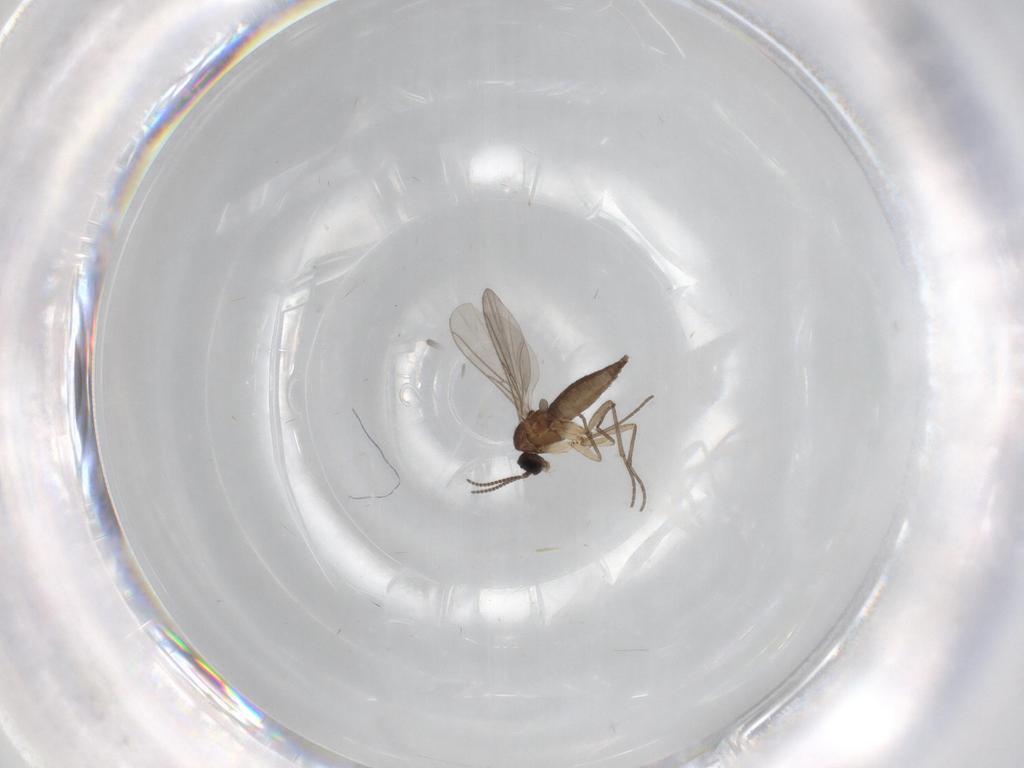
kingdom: Animalia
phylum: Arthropoda
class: Insecta
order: Diptera
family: Sciaridae
